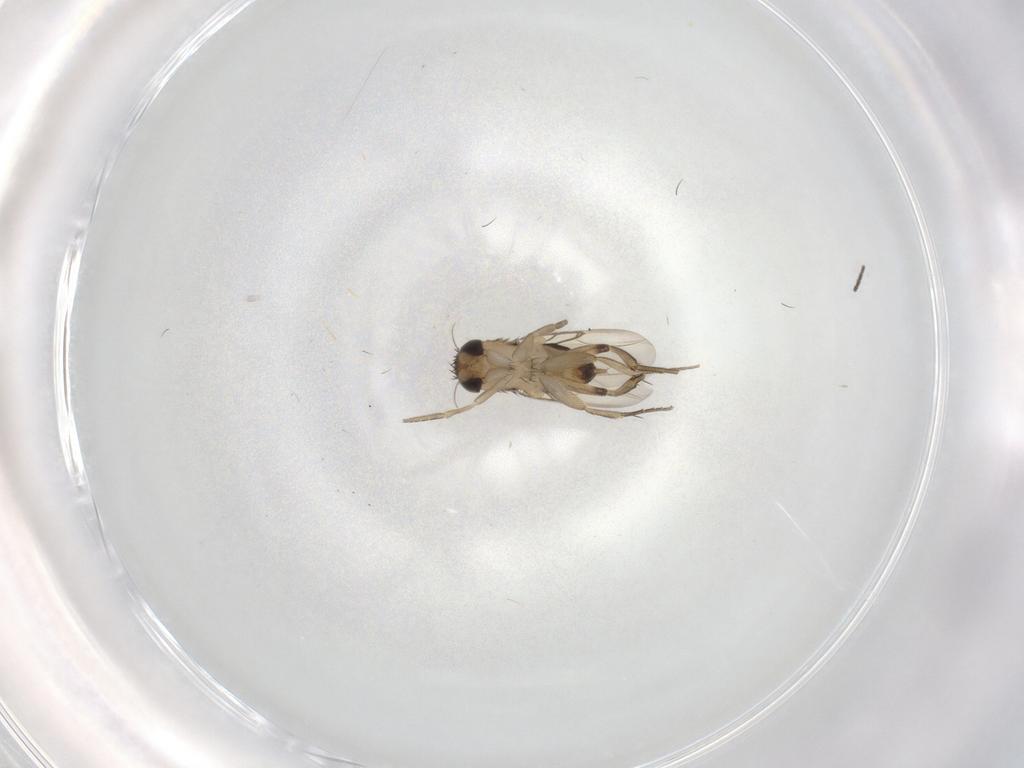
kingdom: Animalia
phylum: Arthropoda
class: Insecta
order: Diptera
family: Phoridae
